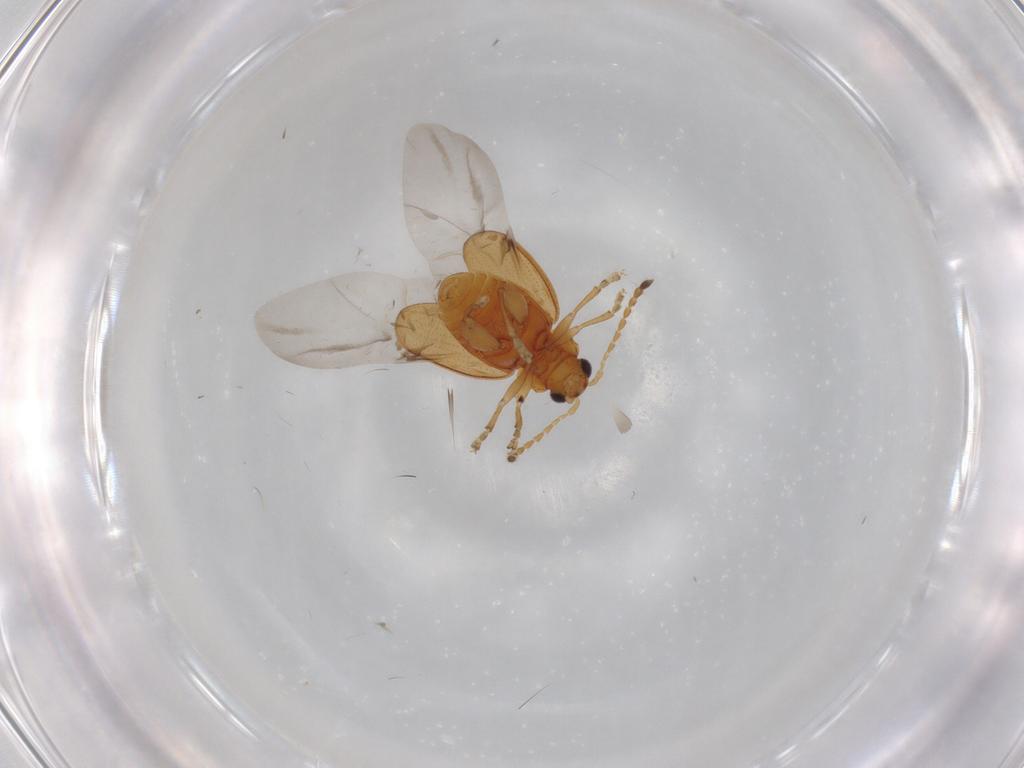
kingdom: Animalia
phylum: Arthropoda
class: Insecta
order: Coleoptera
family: Chrysomelidae
